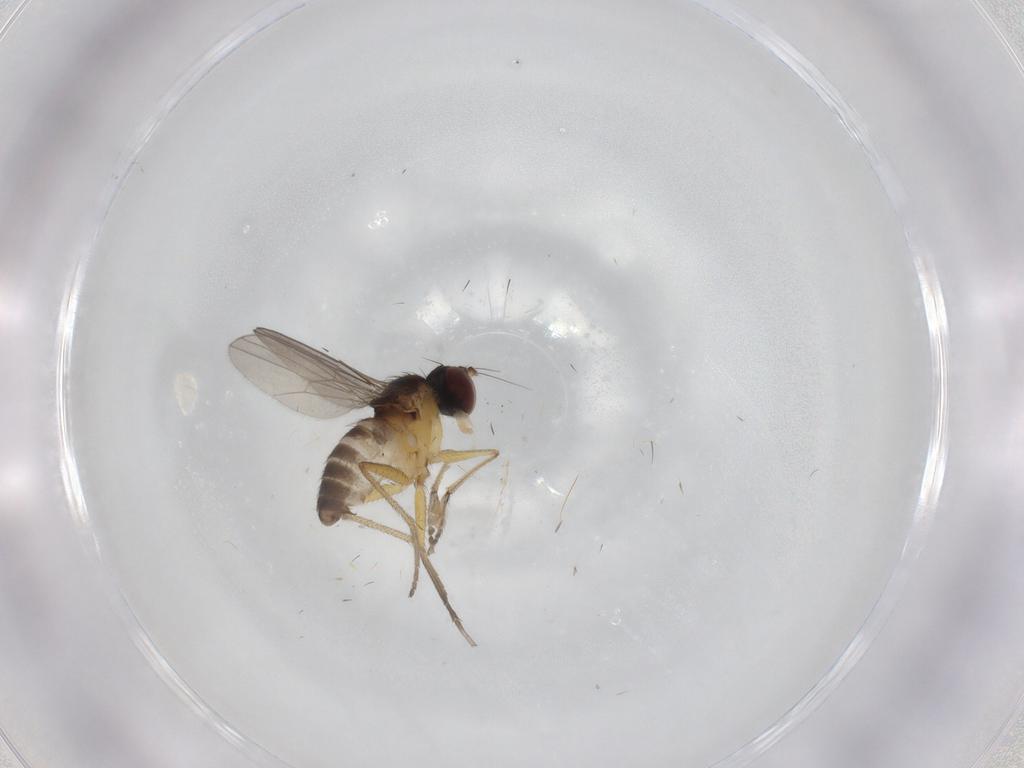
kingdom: Animalia
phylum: Arthropoda
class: Insecta
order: Diptera
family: Dolichopodidae
